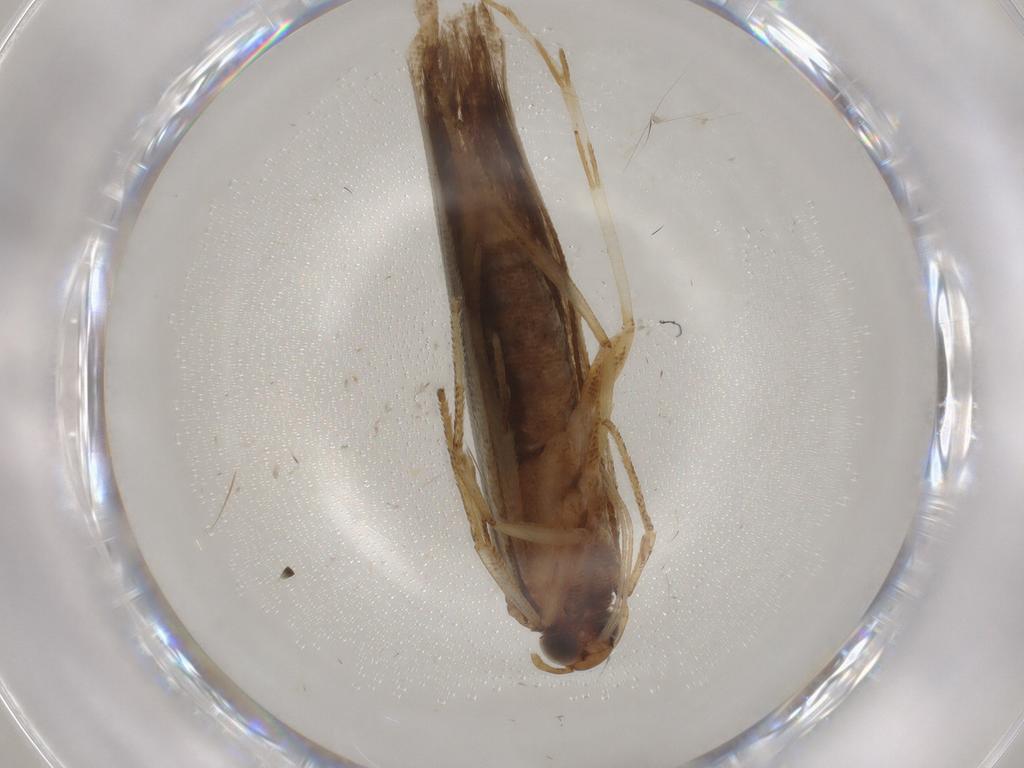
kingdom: Animalia
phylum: Arthropoda
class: Insecta
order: Lepidoptera
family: Gelechiidae
